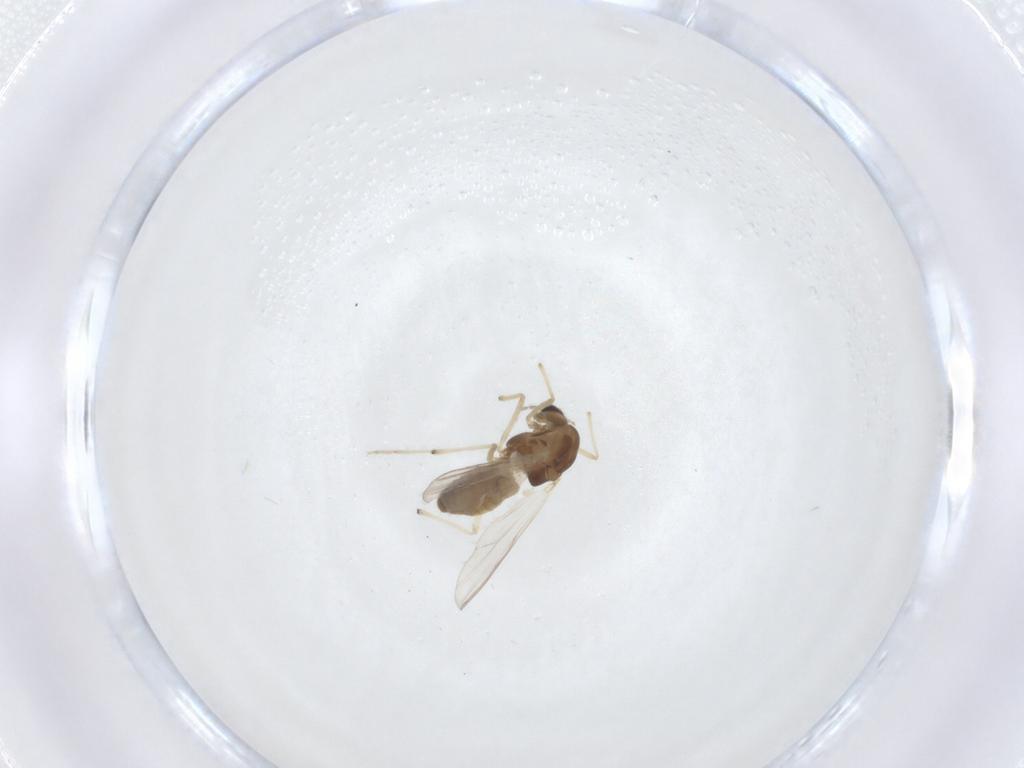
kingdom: Animalia
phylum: Arthropoda
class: Insecta
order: Diptera
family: Chironomidae
